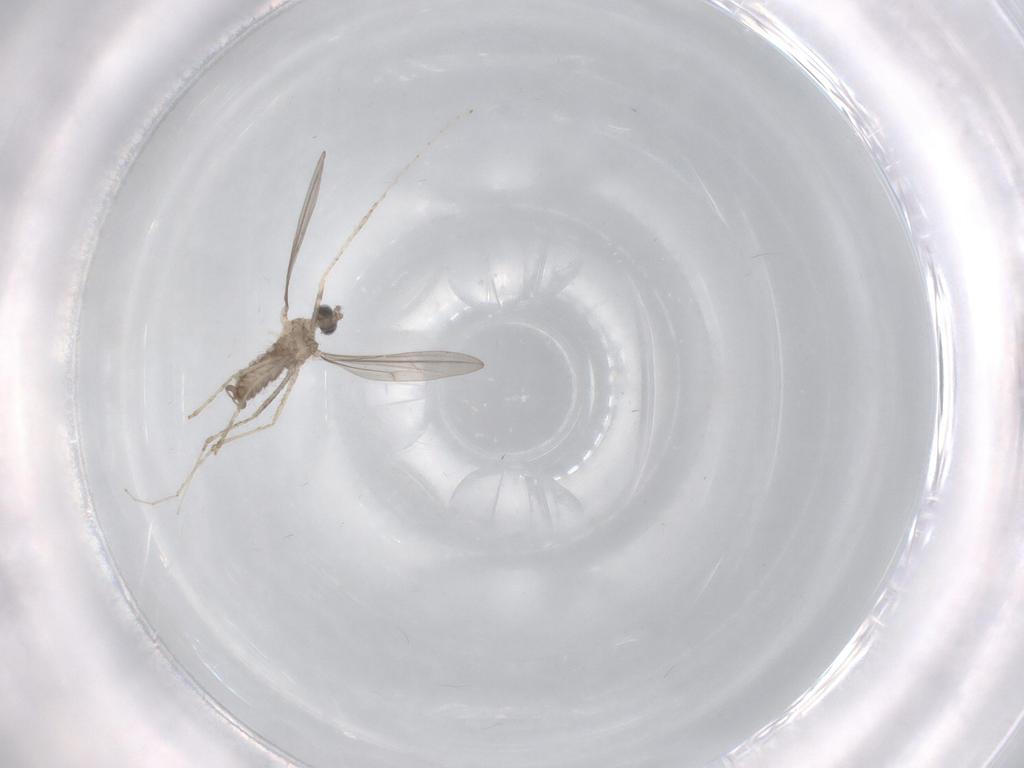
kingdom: Animalia
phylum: Arthropoda
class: Insecta
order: Diptera
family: Cecidomyiidae
